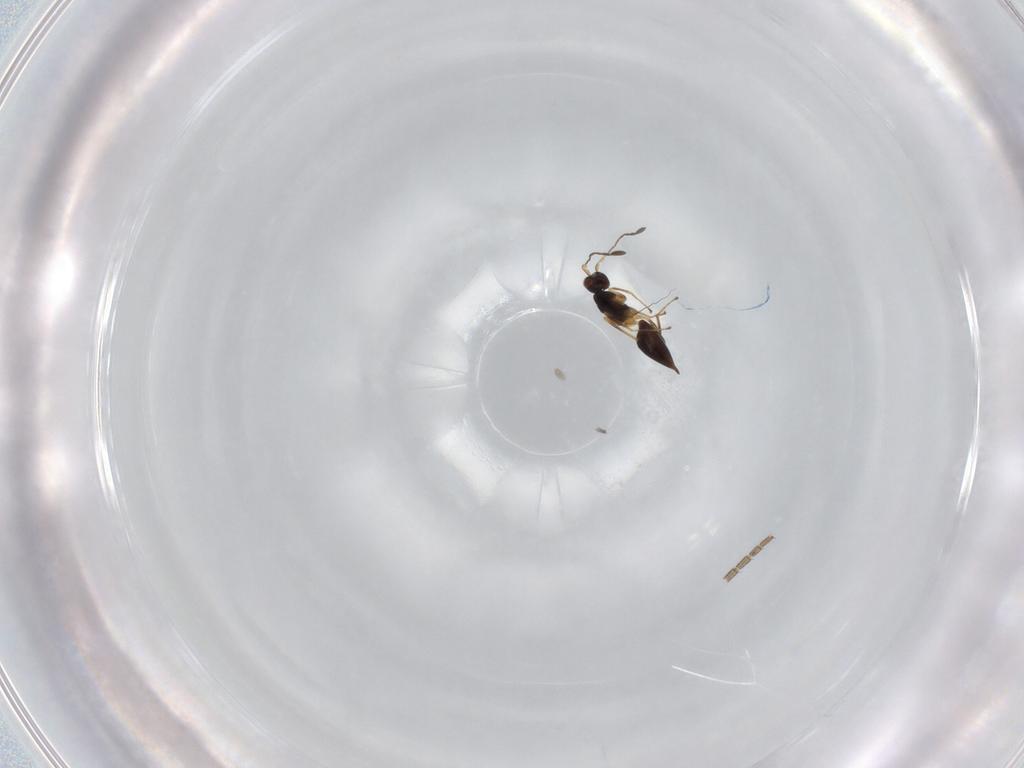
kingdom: Animalia
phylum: Arthropoda
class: Insecta
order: Hymenoptera
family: Mymaridae
